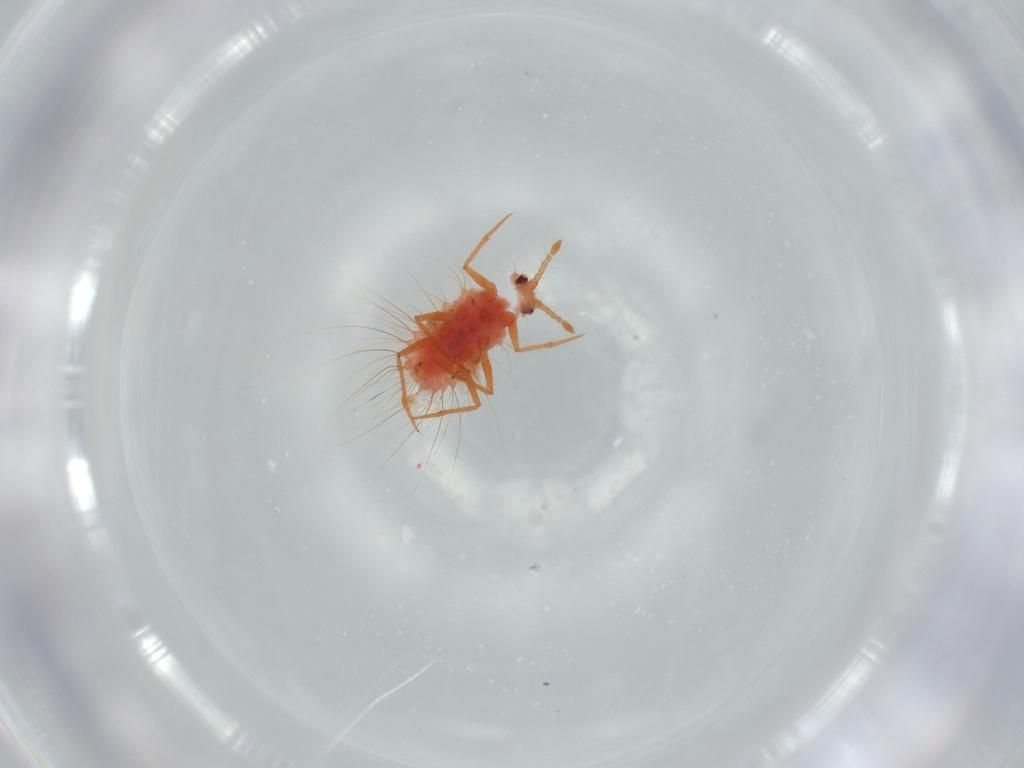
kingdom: Animalia
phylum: Arthropoda
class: Insecta
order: Hemiptera
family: Monophlebidae
